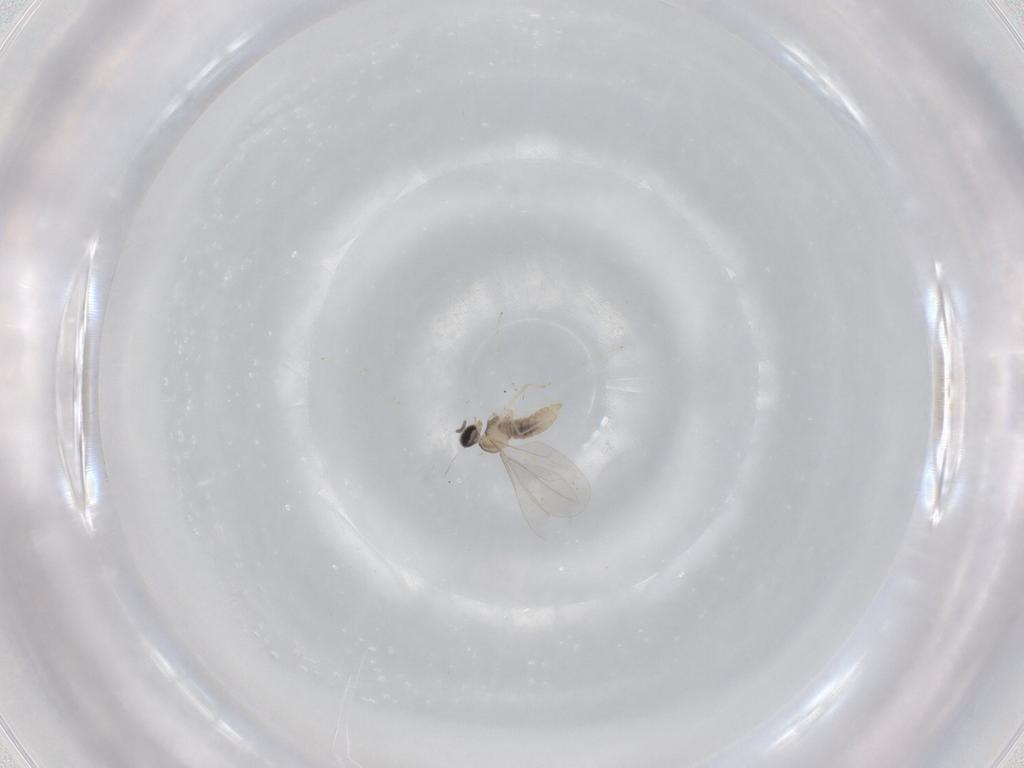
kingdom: Animalia
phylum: Arthropoda
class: Insecta
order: Diptera
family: Cecidomyiidae
